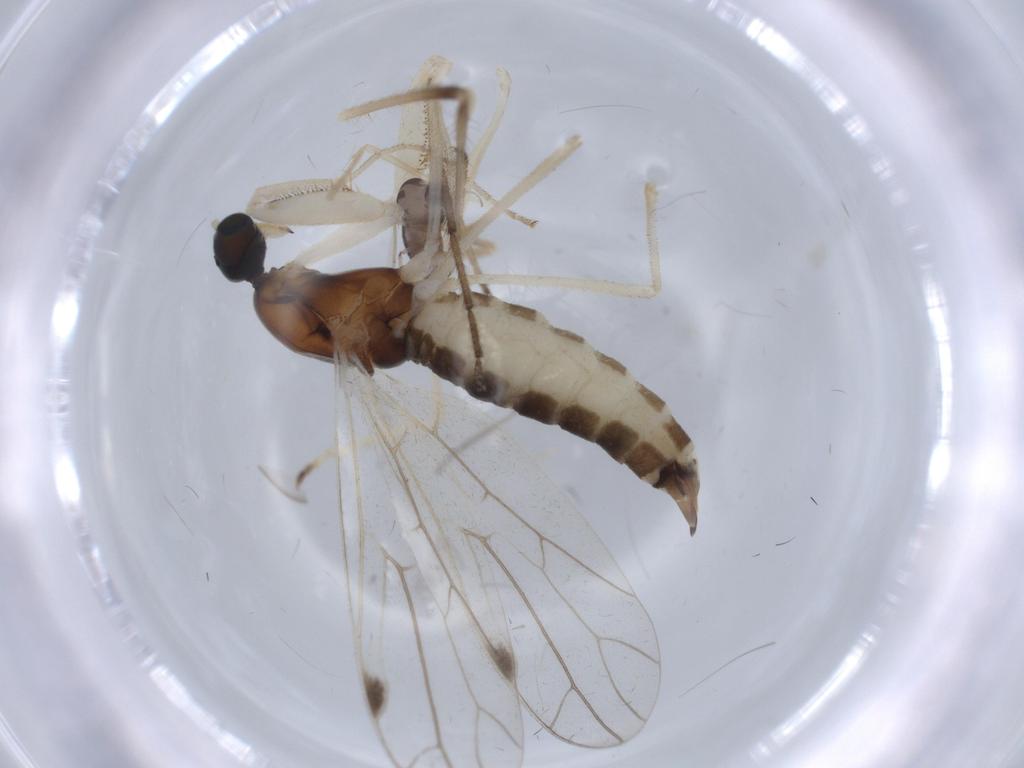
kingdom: Animalia
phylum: Arthropoda
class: Insecta
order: Diptera
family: Empididae
